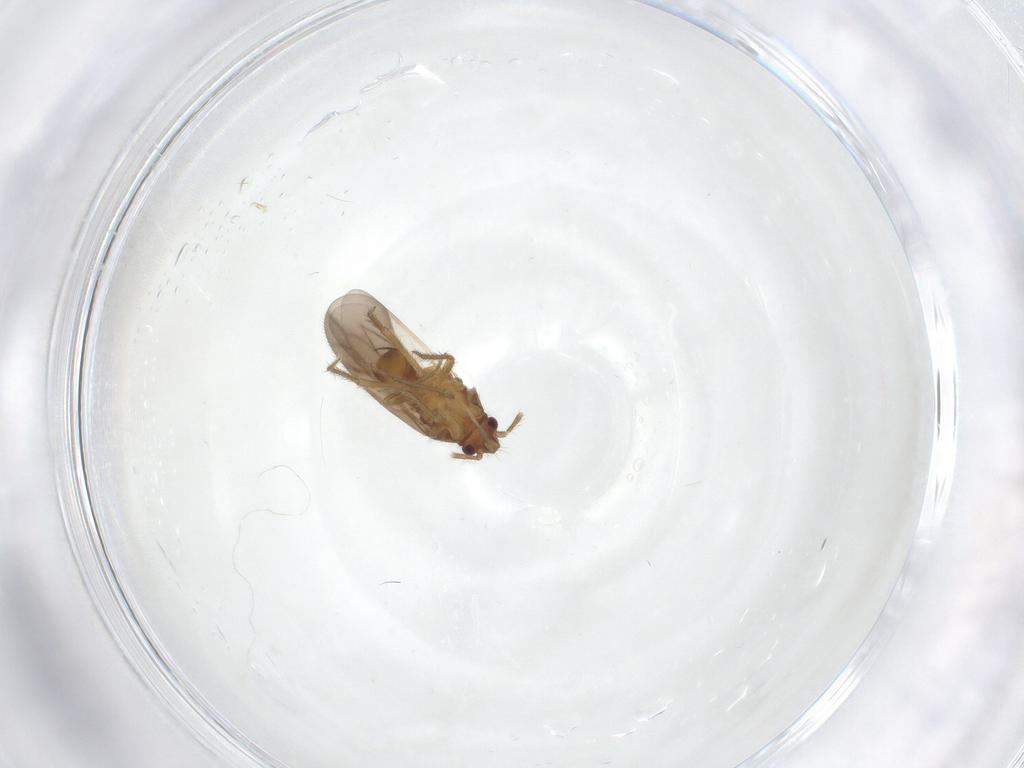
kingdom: Animalia
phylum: Arthropoda
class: Insecta
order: Hemiptera
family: Ceratocombidae
